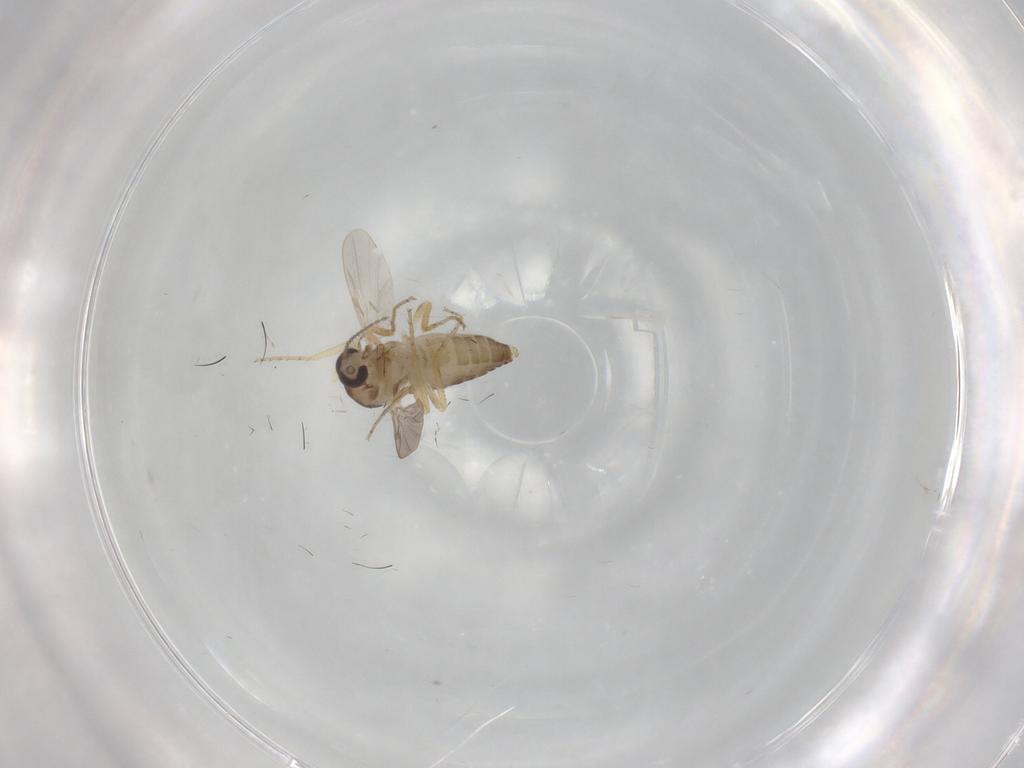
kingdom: Animalia
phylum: Arthropoda
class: Insecta
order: Diptera
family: Ceratopogonidae
